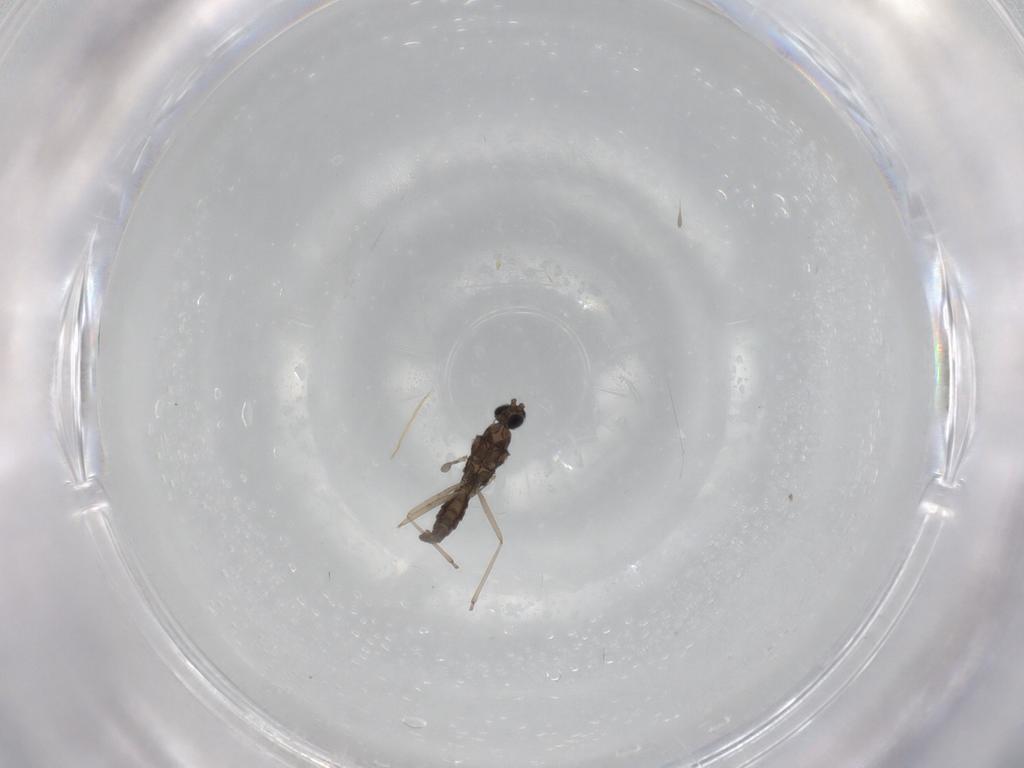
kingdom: Animalia
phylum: Arthropoda
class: Insecta
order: Diptera
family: Cecidomyiidae
